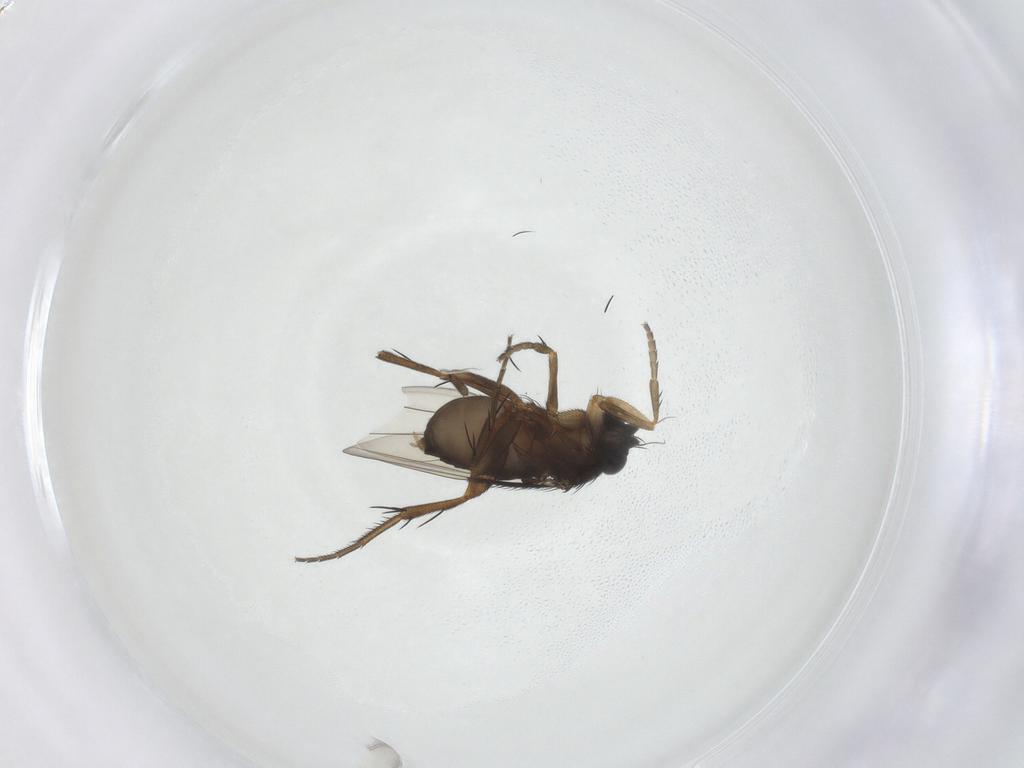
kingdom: Animalia
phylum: Arthropoda
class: Insecta
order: Diptera
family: Phoridae
